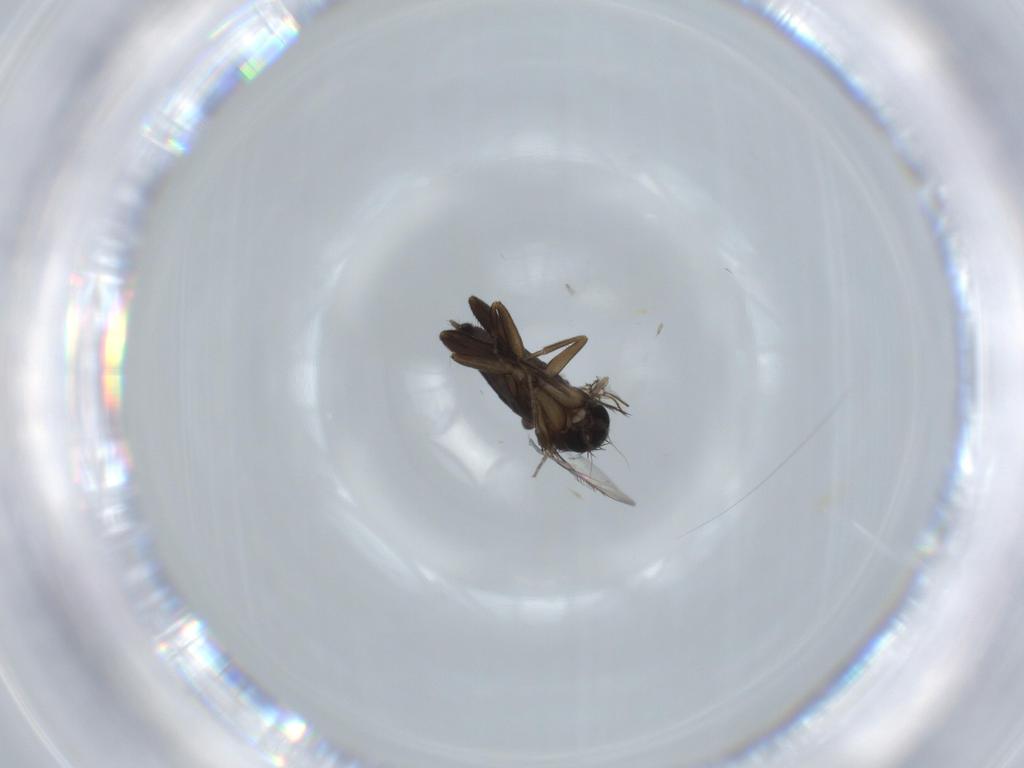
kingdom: Animalia
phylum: Arthropoda
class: Insecta
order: Diptera
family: Phoridae
